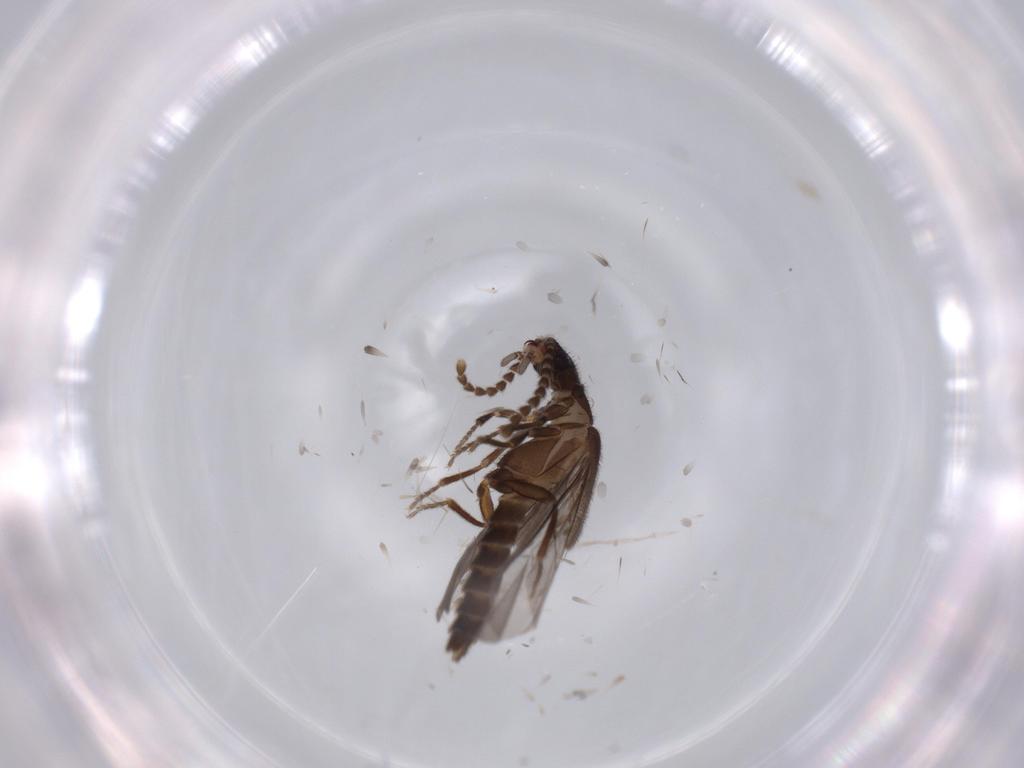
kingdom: Animalia
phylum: Arthropoda
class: Insecta
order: Coleoptera
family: Omethidae
